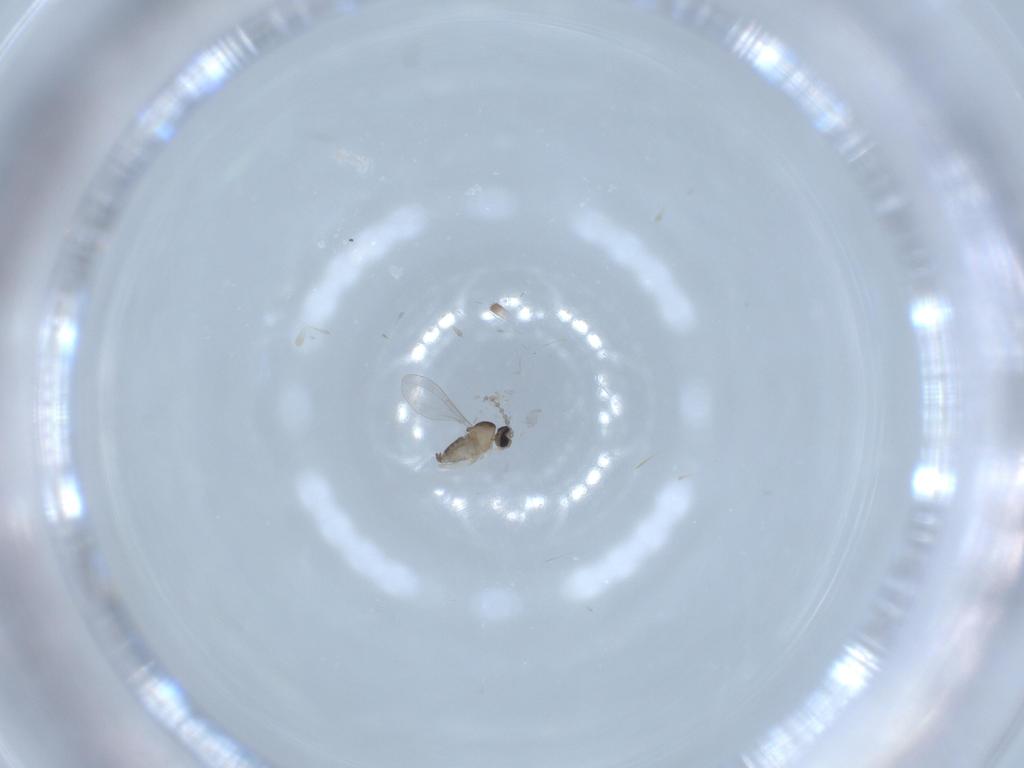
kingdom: Animalia
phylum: Arthropoda
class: Insecta
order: Diptera
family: Cecidomyiidae
